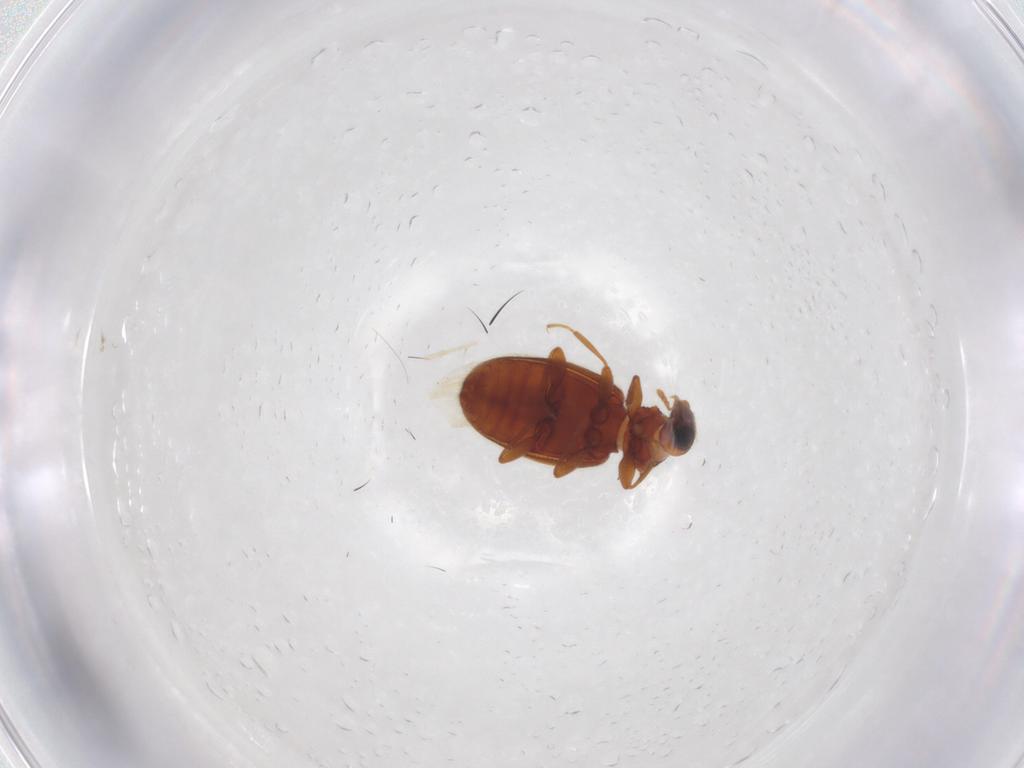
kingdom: Animalia
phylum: Arthropoda
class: Insecta
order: Coleoptera
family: Latridiidae
